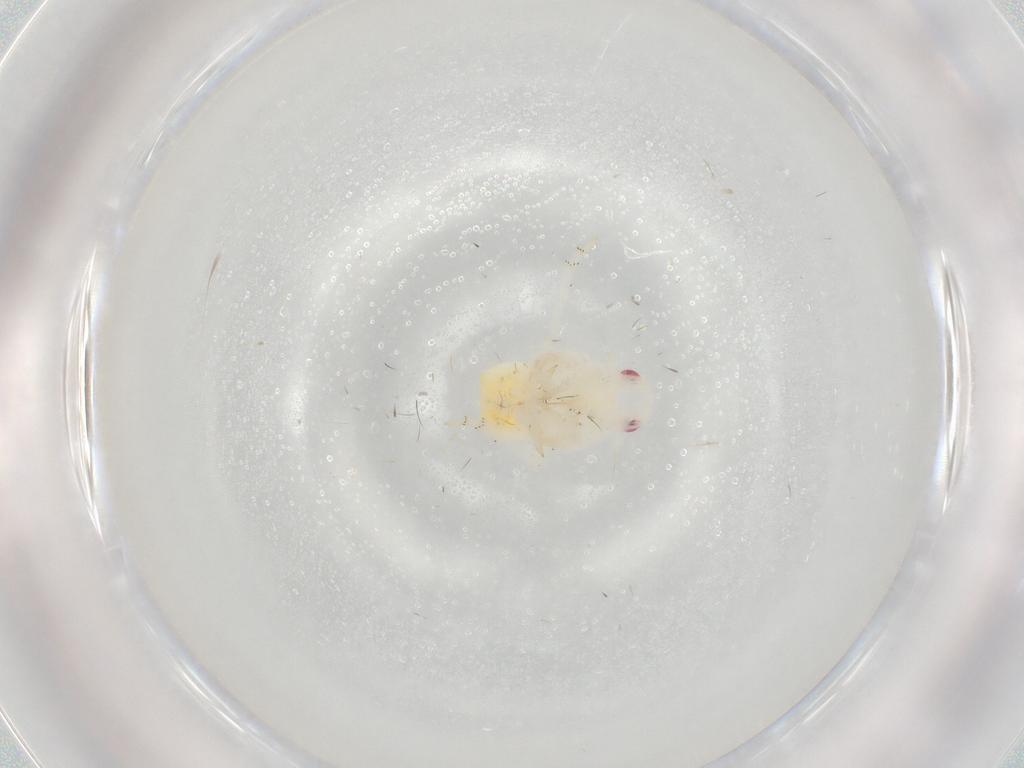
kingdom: Animalia
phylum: Arthropoda
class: Insecta
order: Hemiptera
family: Flatidae
